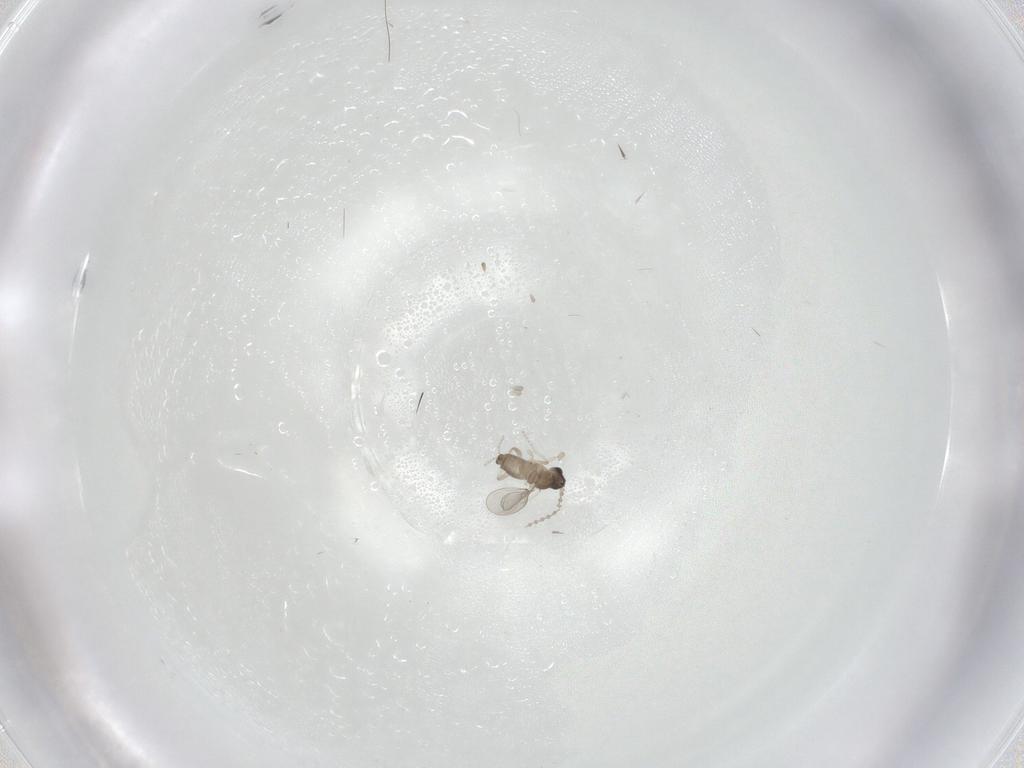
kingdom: Animalia
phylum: Arthropoda
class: Insecta
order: Diptera
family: Cecidomyiidae
